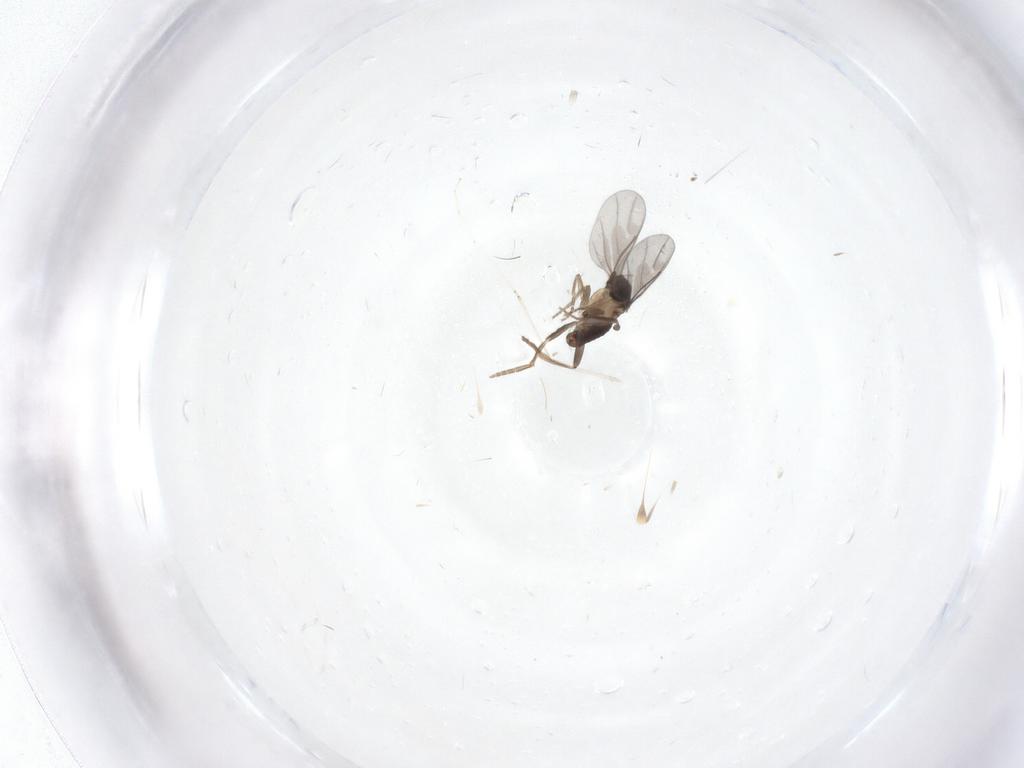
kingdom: Animalia
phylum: Arthropoda
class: Insecta
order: Diptera
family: Cecidomyiidae
